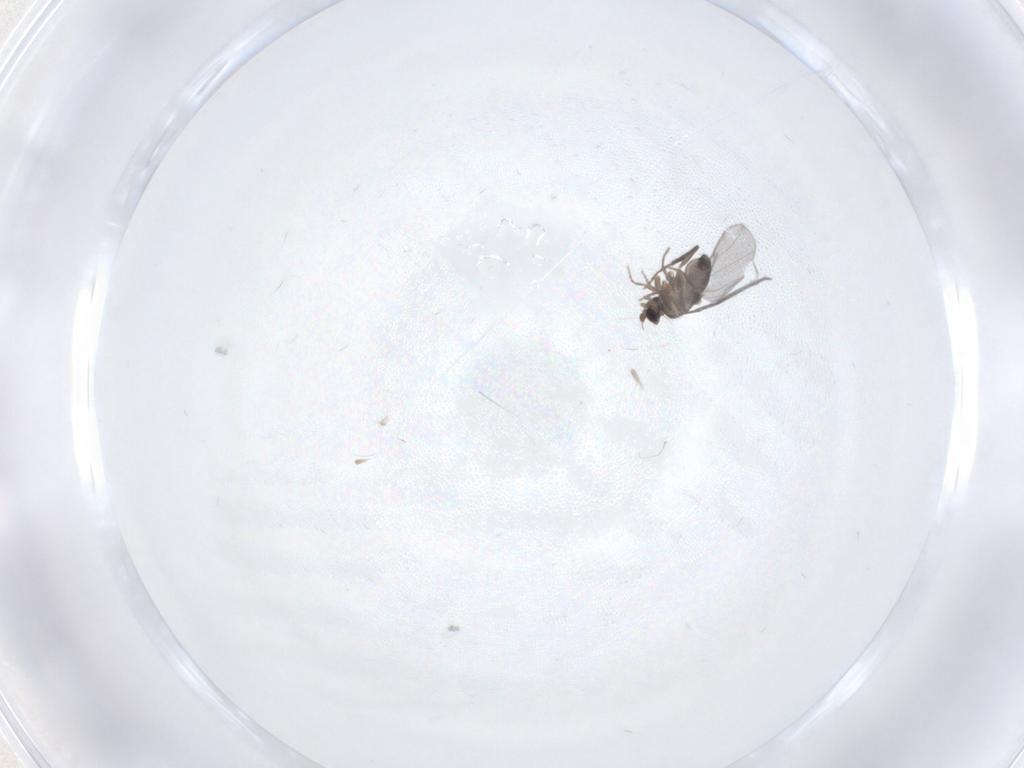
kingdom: Animalia
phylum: Arthropoda
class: Insecta
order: Diptera
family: Phoridae
